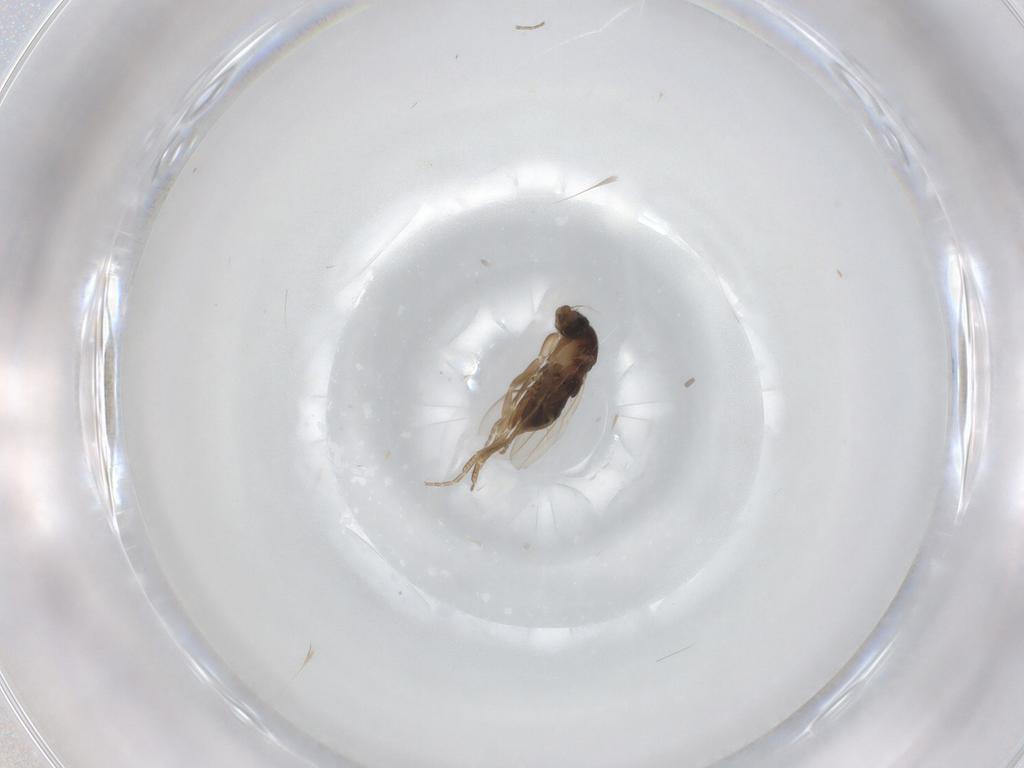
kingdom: Animalia
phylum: Arthropoda
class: Insecta
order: Diptera
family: Phoridae
